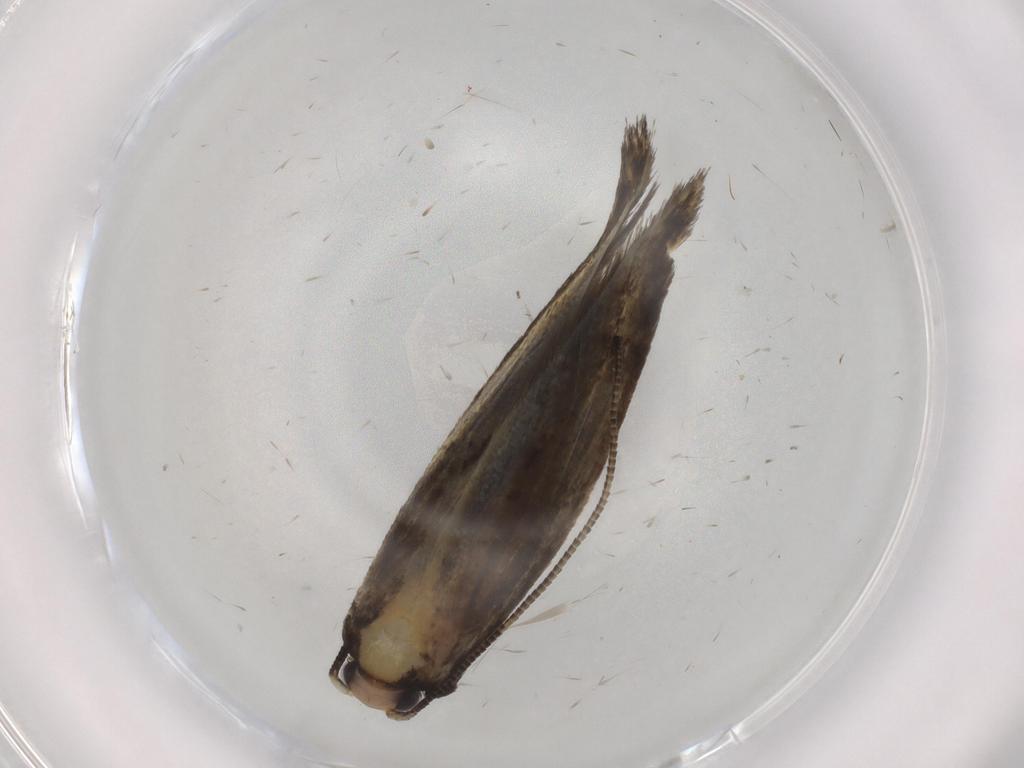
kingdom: Animalia
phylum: Arthropoda
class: Insecta
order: Lepidoptera
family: Tineidae
